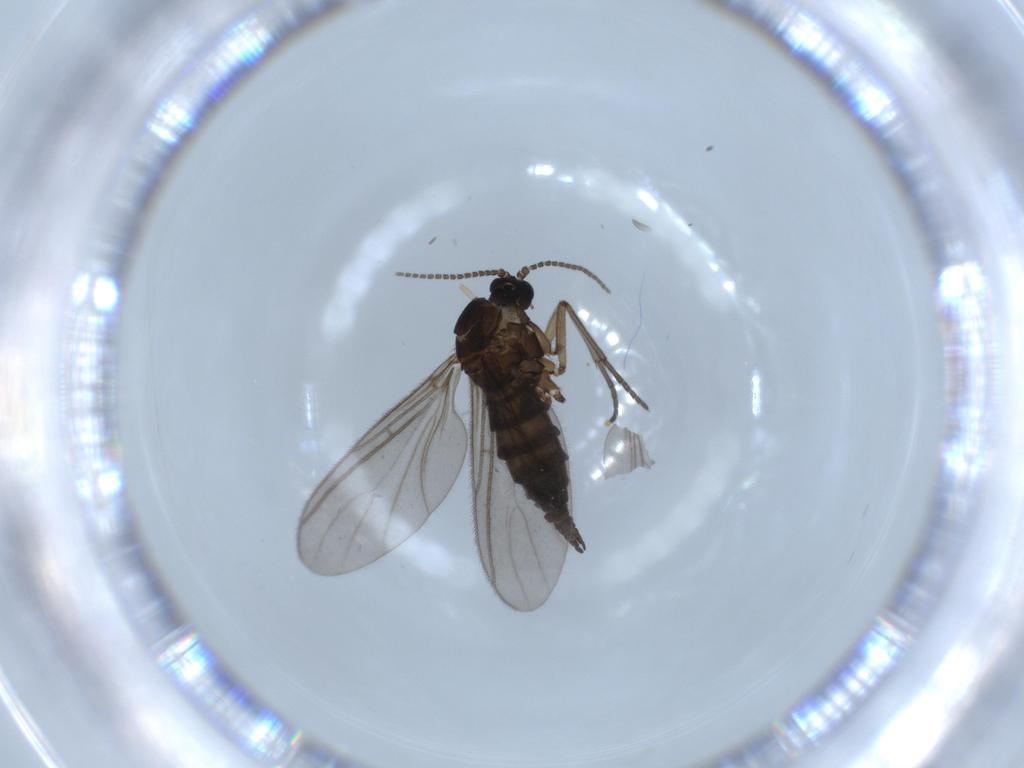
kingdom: Animalia
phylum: Arthropoda
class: Insecta
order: Diptera
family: Sciaridae
